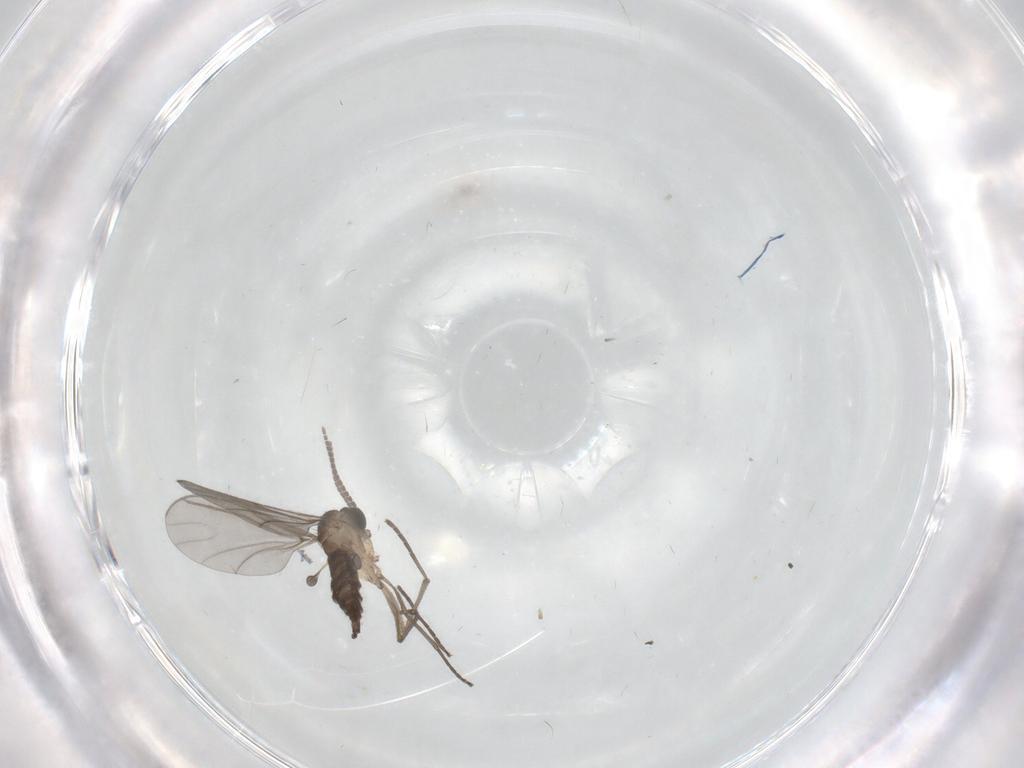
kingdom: Animalia
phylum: Arthropoda
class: Insecta
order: Diptera
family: Sciaridae
